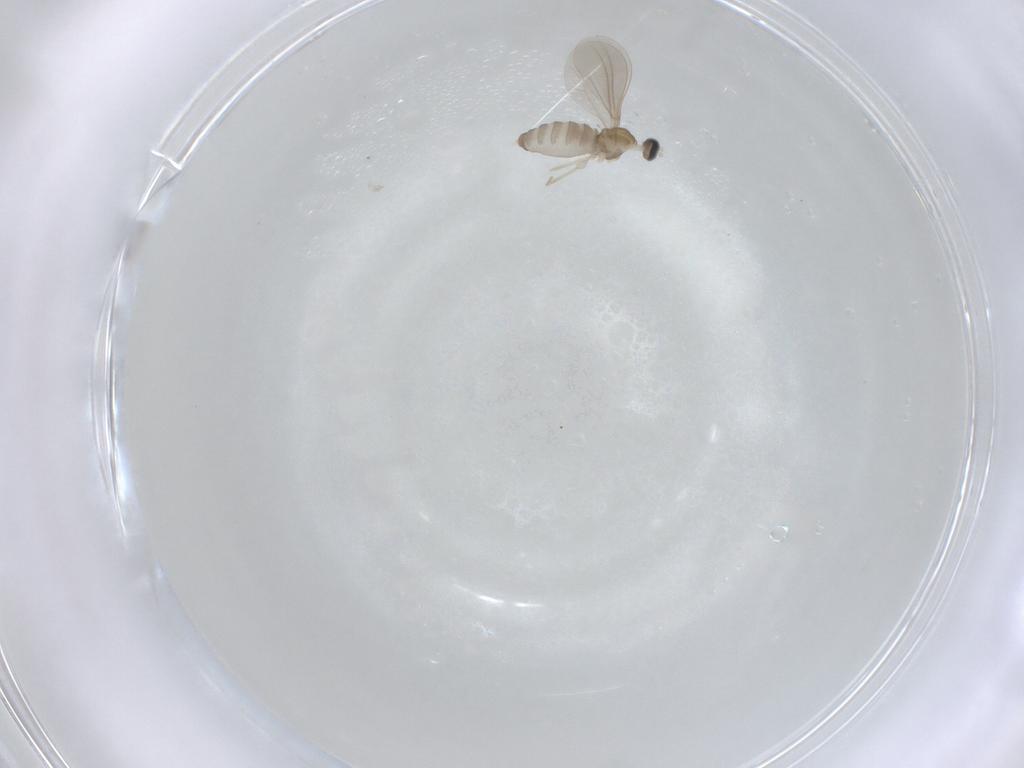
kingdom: Animalia
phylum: Arthropoda
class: Insecta
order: Diptera
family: Cecidomyiidae
